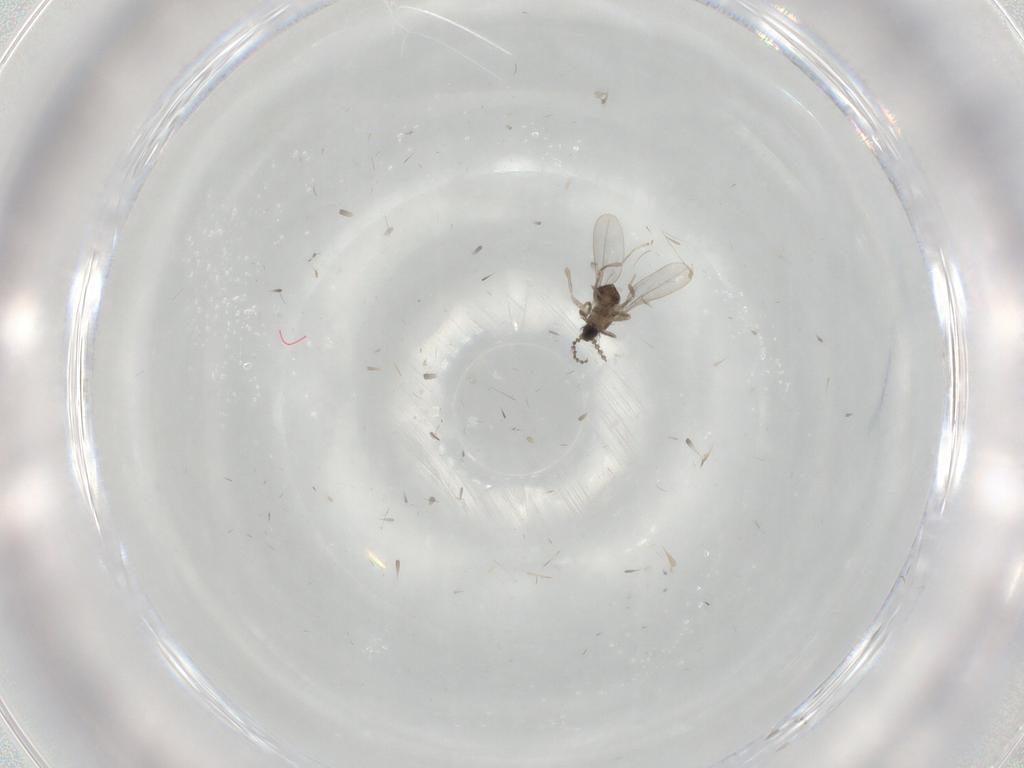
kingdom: Animalia
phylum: Arthropoda
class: Insecta
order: Diptera
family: Cecidomyiidae
